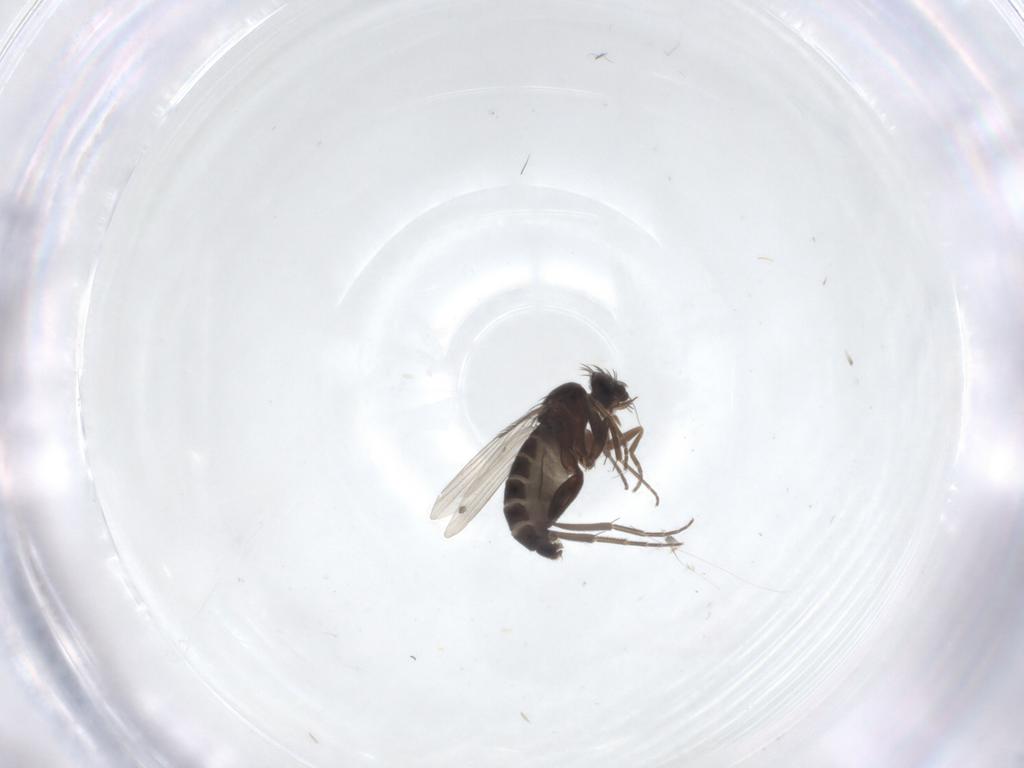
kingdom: Animalia
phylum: Arthropoda
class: Insecta
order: Diptera
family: Phoridae
